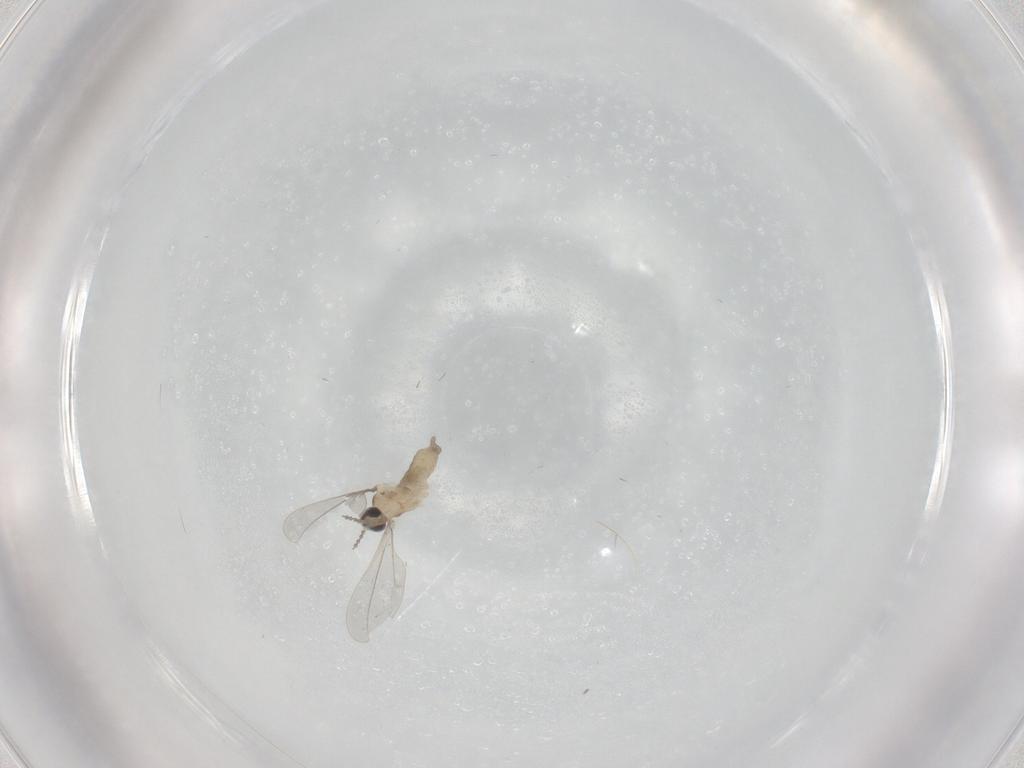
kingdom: Animalia
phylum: Arthropoda
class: Insecta
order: Diptera
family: Cecidomyiidae
